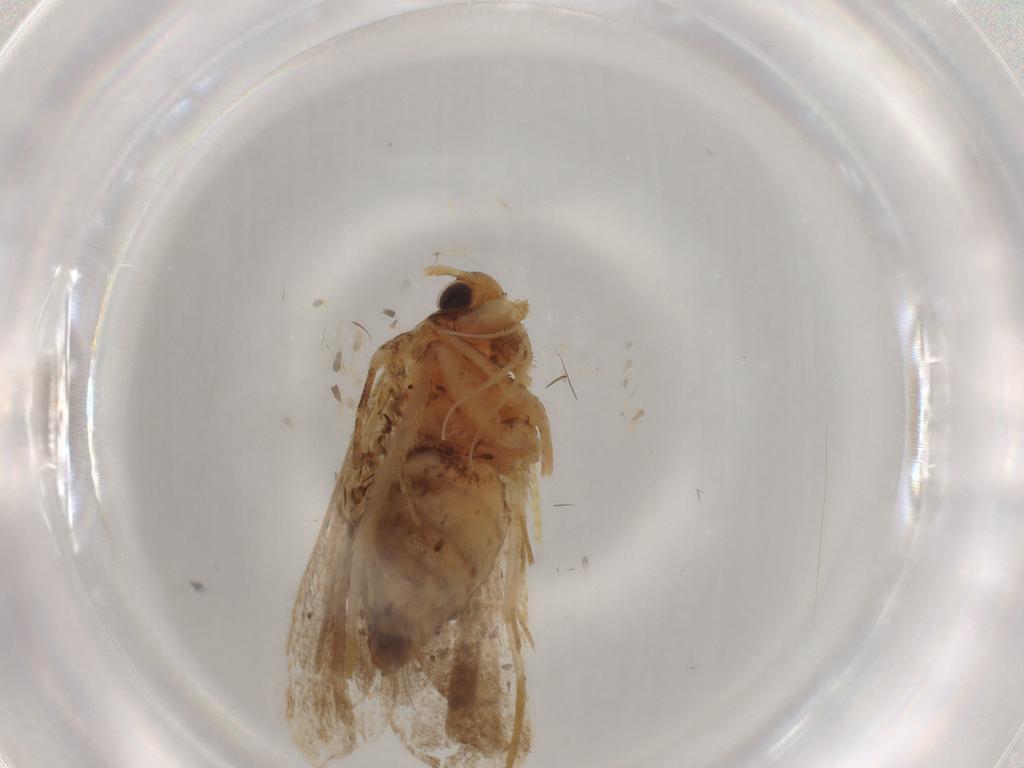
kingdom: Animalia
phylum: Arthropoda
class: Insecta
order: Lepidoptera
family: Lecithoceridae
